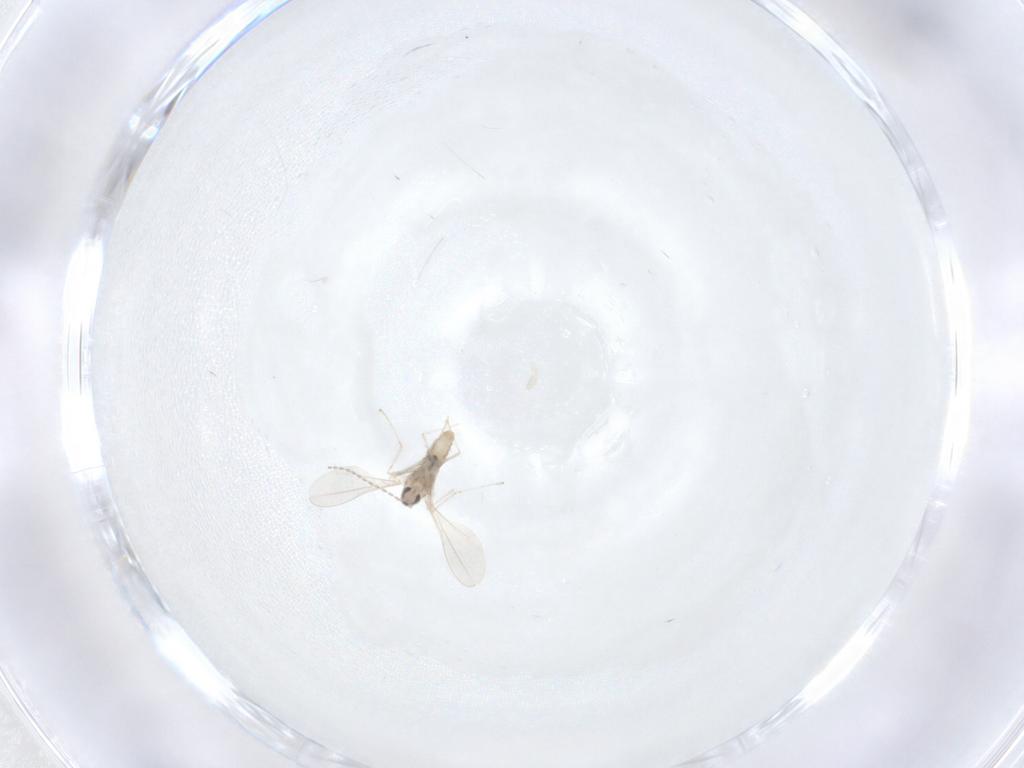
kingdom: Animalia
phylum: Arthropoda
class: Insecta
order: Diptera
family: Cecidomyiidae
